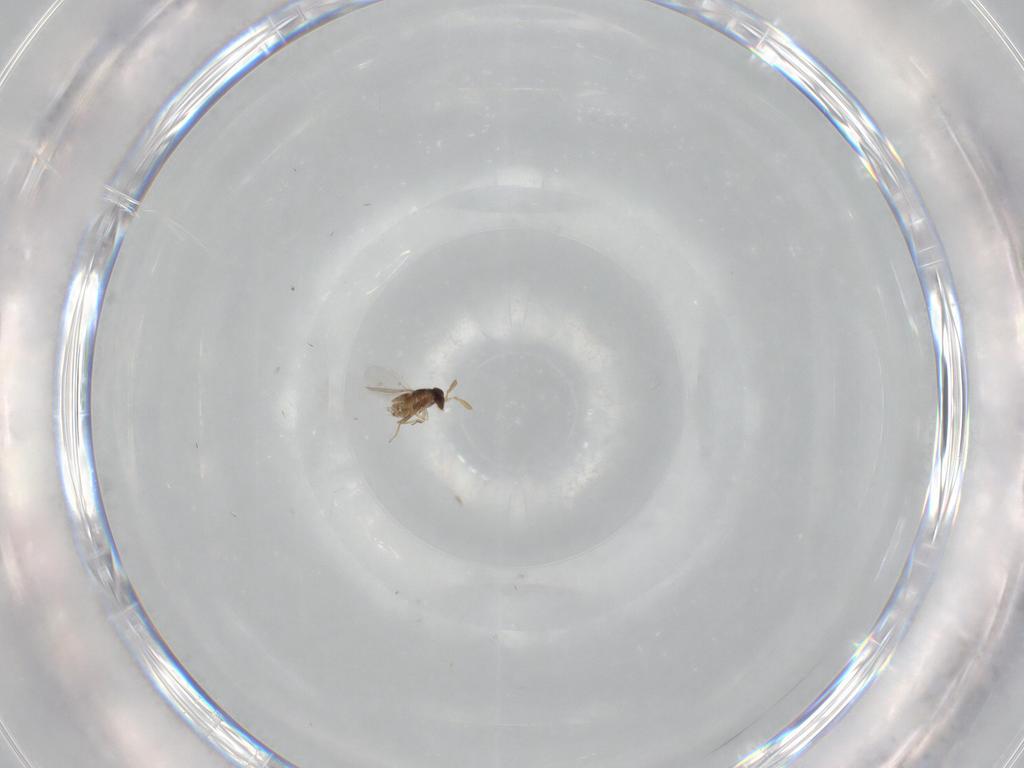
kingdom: Animalia
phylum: Arthropoda
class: Insecta
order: Hymenoptera
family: Encyrtidae
